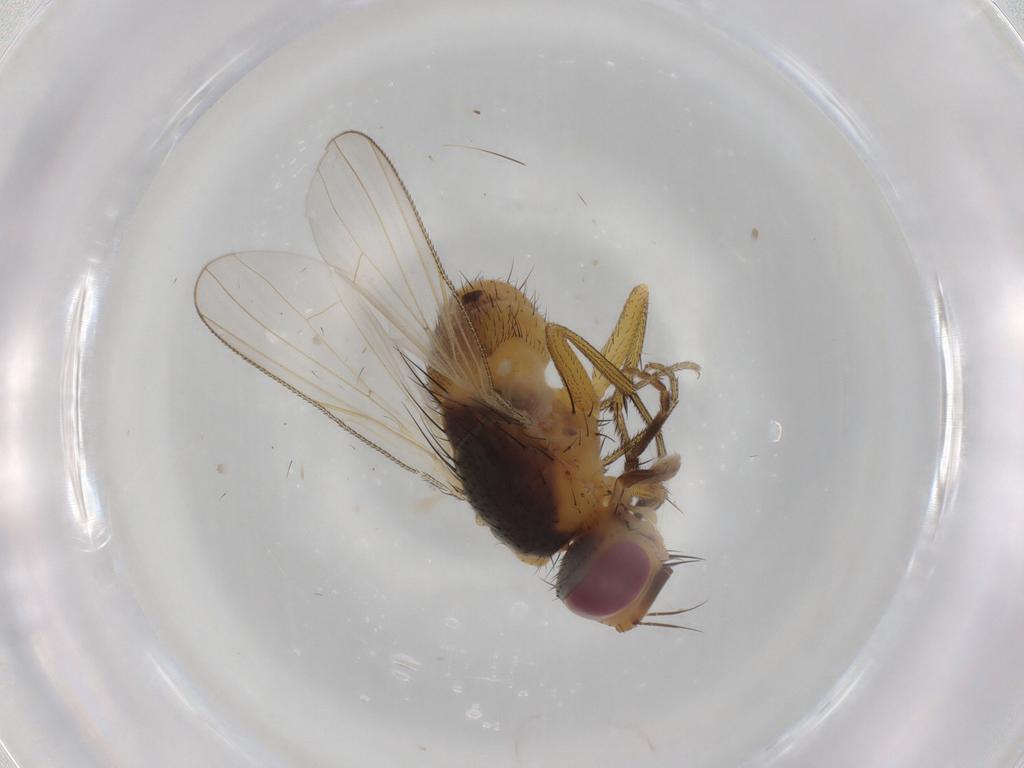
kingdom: Animalia
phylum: Arthropoda
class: Insecta
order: Diptera
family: Muscidae
